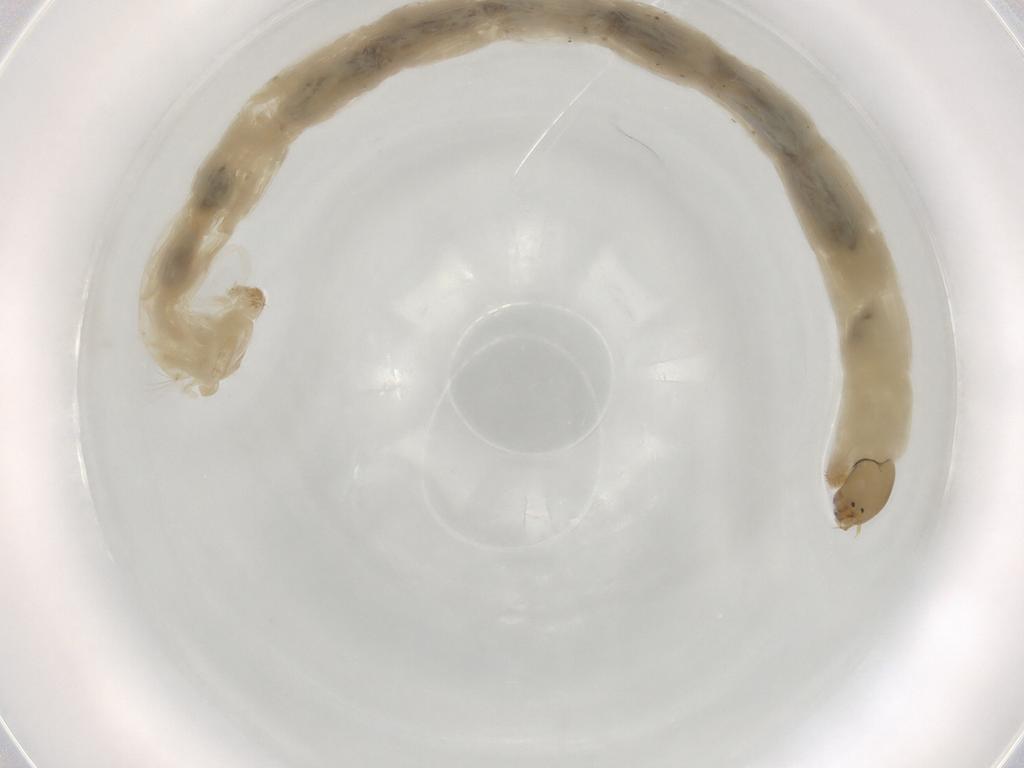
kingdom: Animalia
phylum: Arthropoda
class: Insecta
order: Diptera
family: Chironomidae
